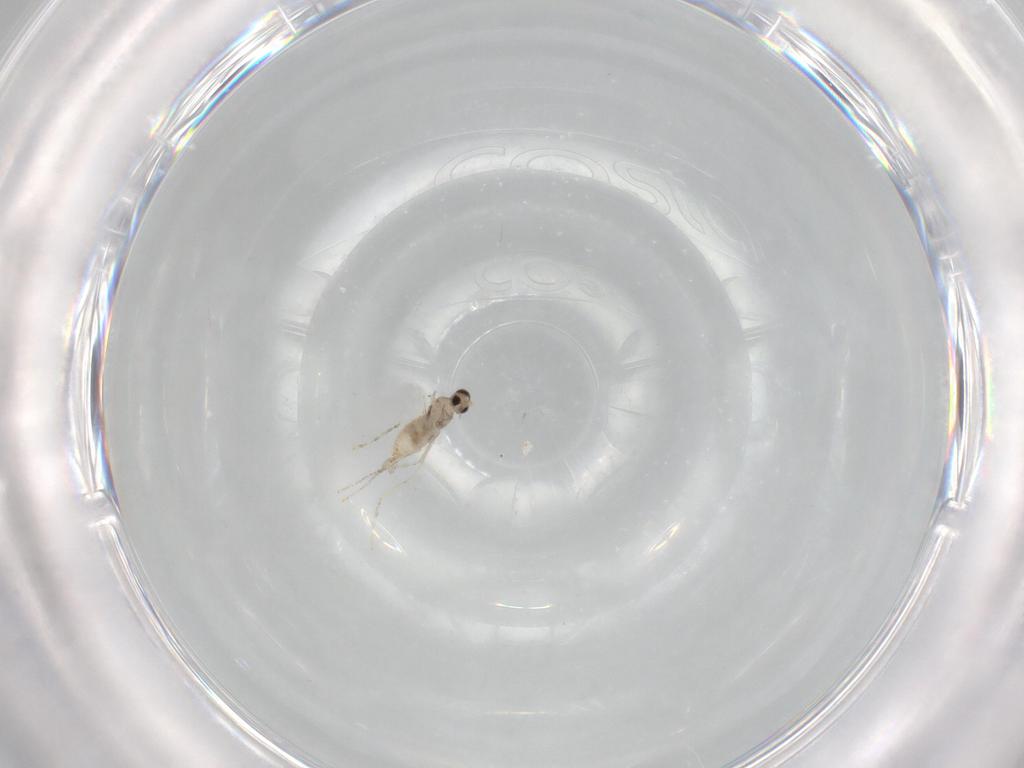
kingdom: Animalia
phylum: Arthropoda
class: Insecta
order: Diptera
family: Cecidomyiidae
